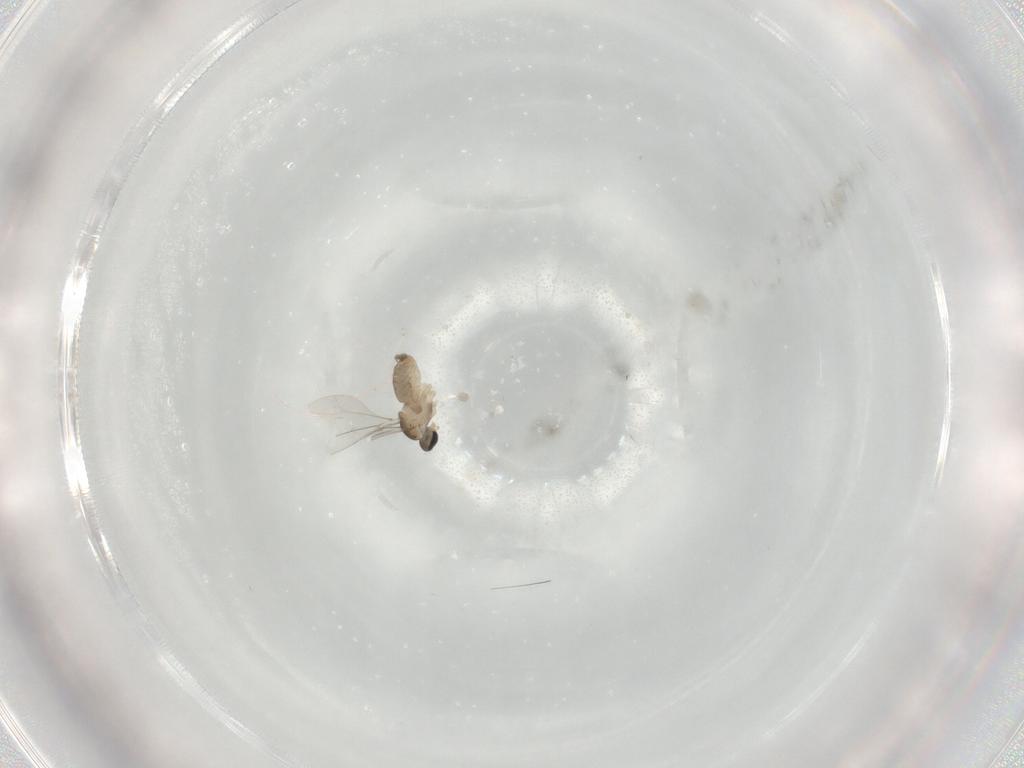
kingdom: Animalia
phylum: Arthropoda
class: Insecta
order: Diptera
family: Cecidomyiidae
